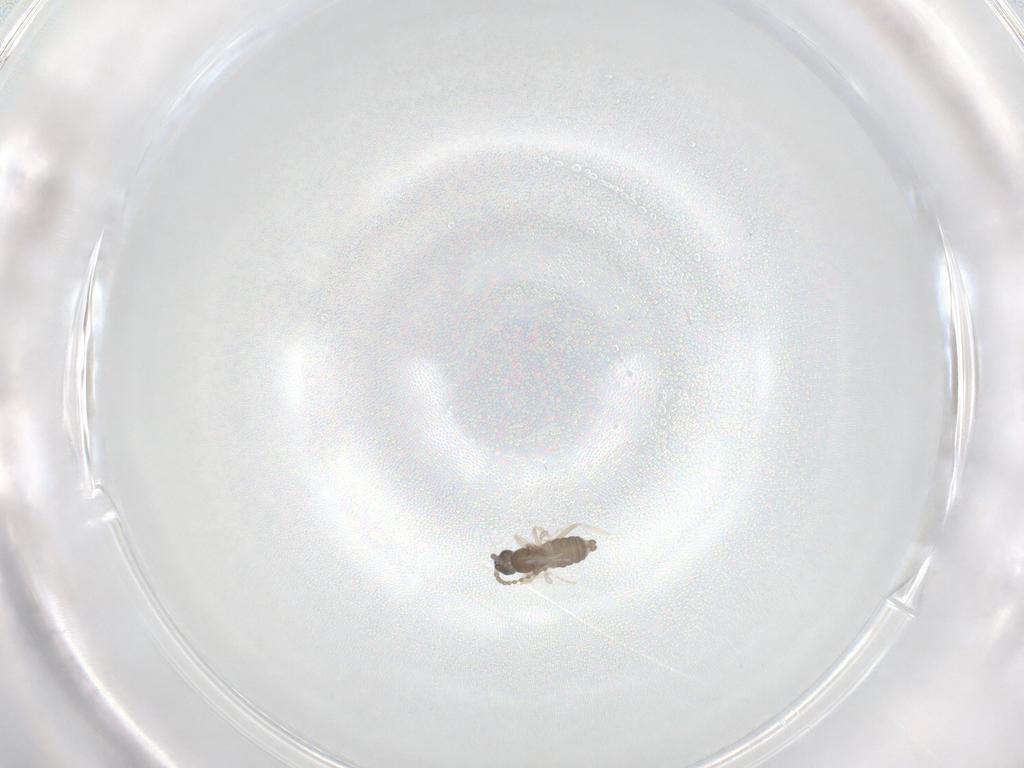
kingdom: Animalia
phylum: Arthropoda
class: Insecta
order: Diptera
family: Cecidomyiidae
